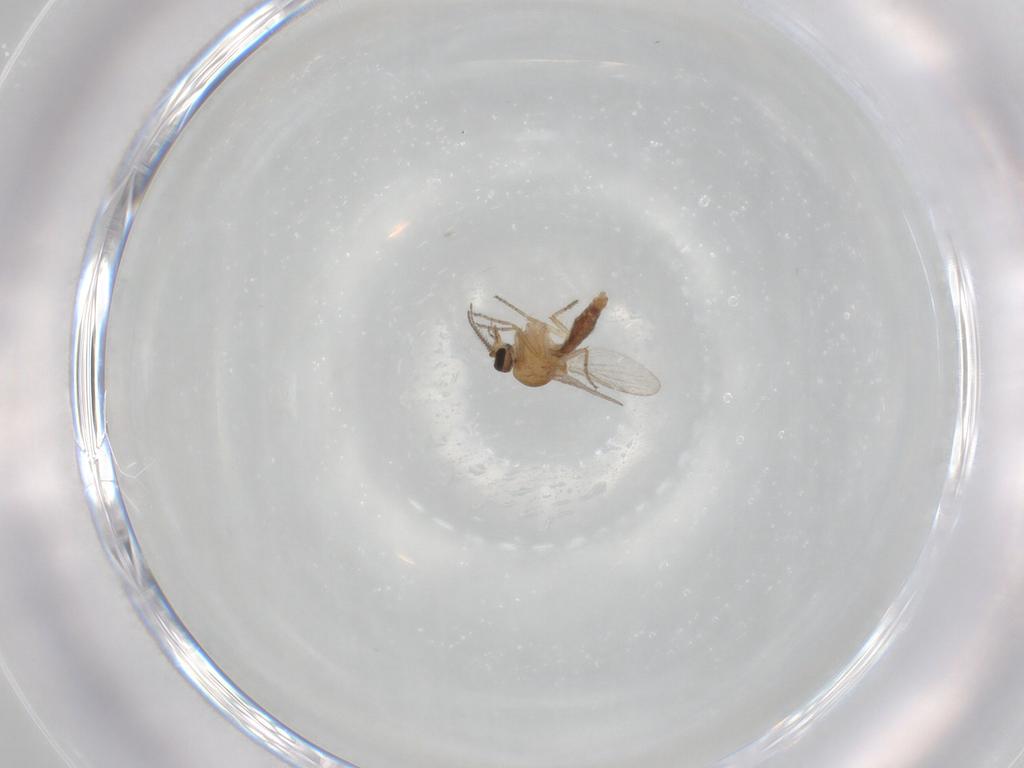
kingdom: Animalia
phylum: Arthropoda
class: Insecta
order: Diptera
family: Ceratopogonidae
